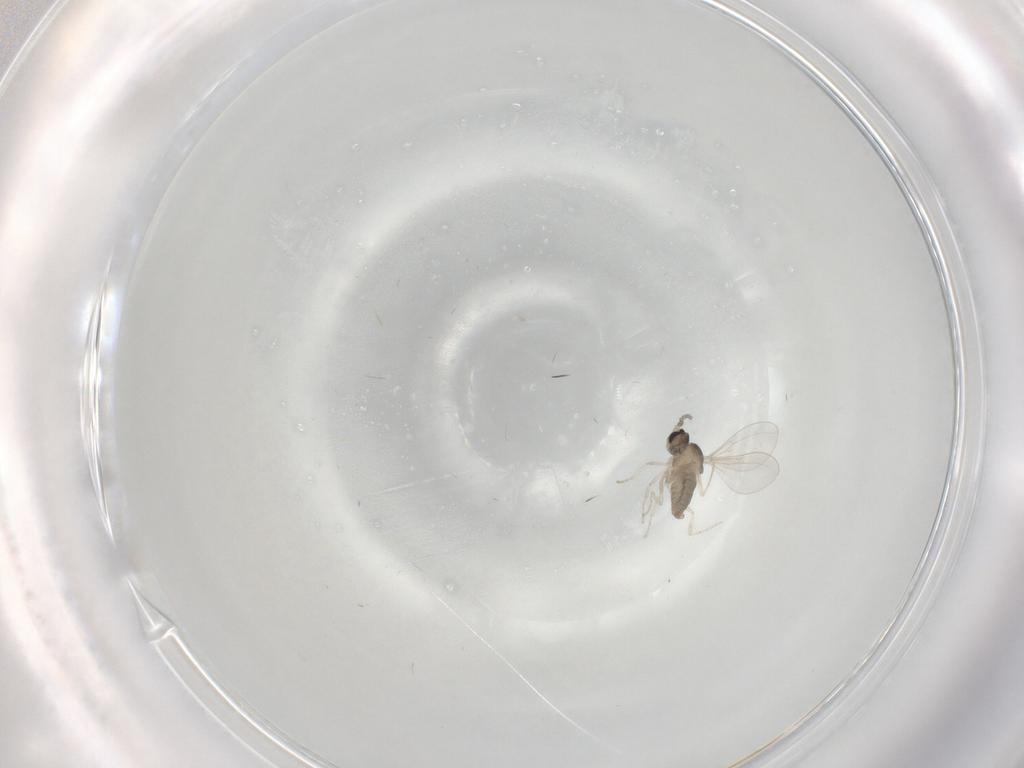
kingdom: Animalia
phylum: Arthropoda
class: Insecta
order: Diptera
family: Cecidomyiidae
